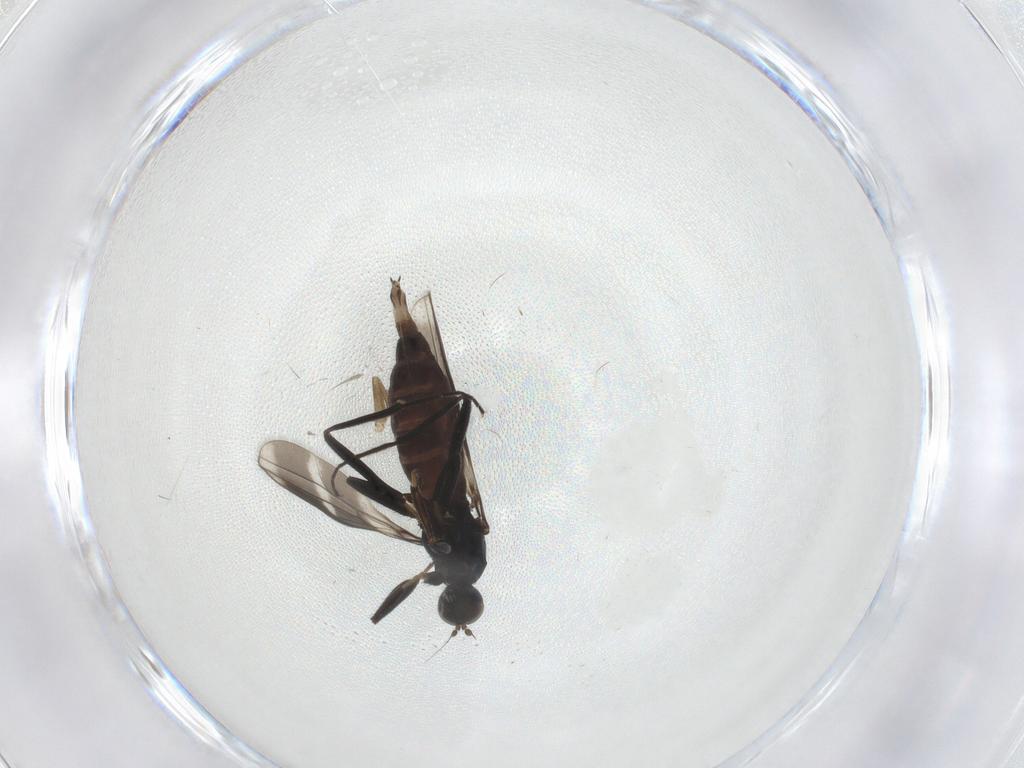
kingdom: Animalia
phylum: Arthropoda
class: Insecta
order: Diptera
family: Hybotidae
